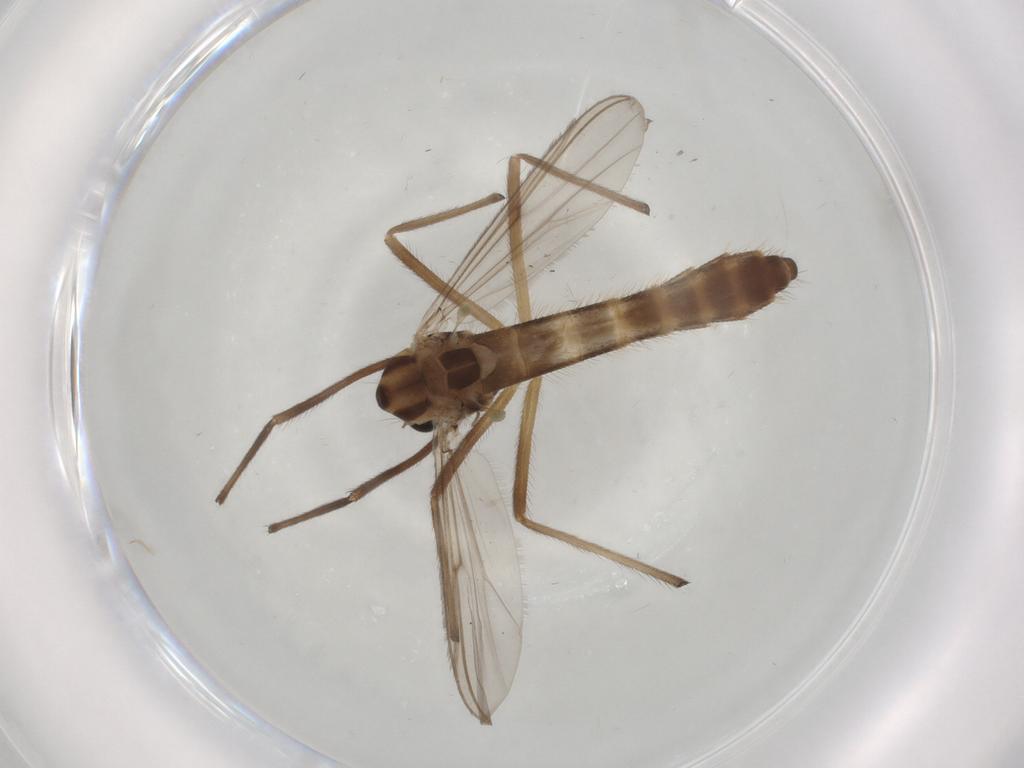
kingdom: Animalia
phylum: Arthropoda
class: Insecta
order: Diptera
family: Chironomidae
